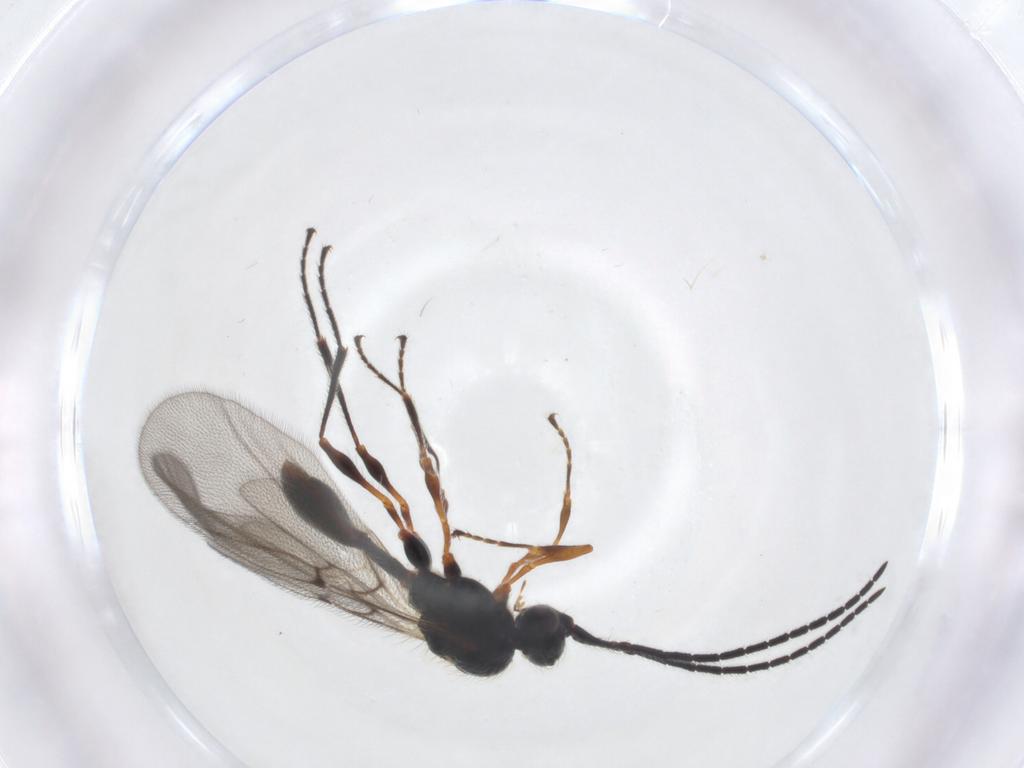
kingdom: Animalia
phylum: Arthropoda
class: Insecta
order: Hymenoptera
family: Diapriidae
